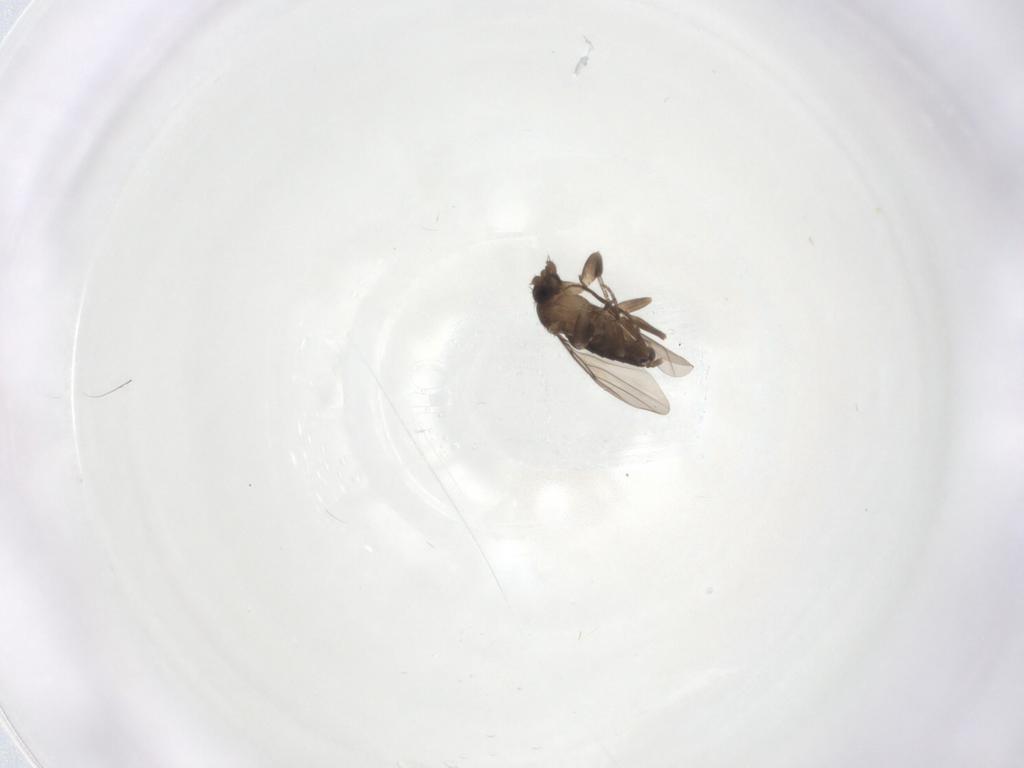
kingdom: Animalia
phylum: Arthropoda
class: Insecta
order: Diptera
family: Phoridae
